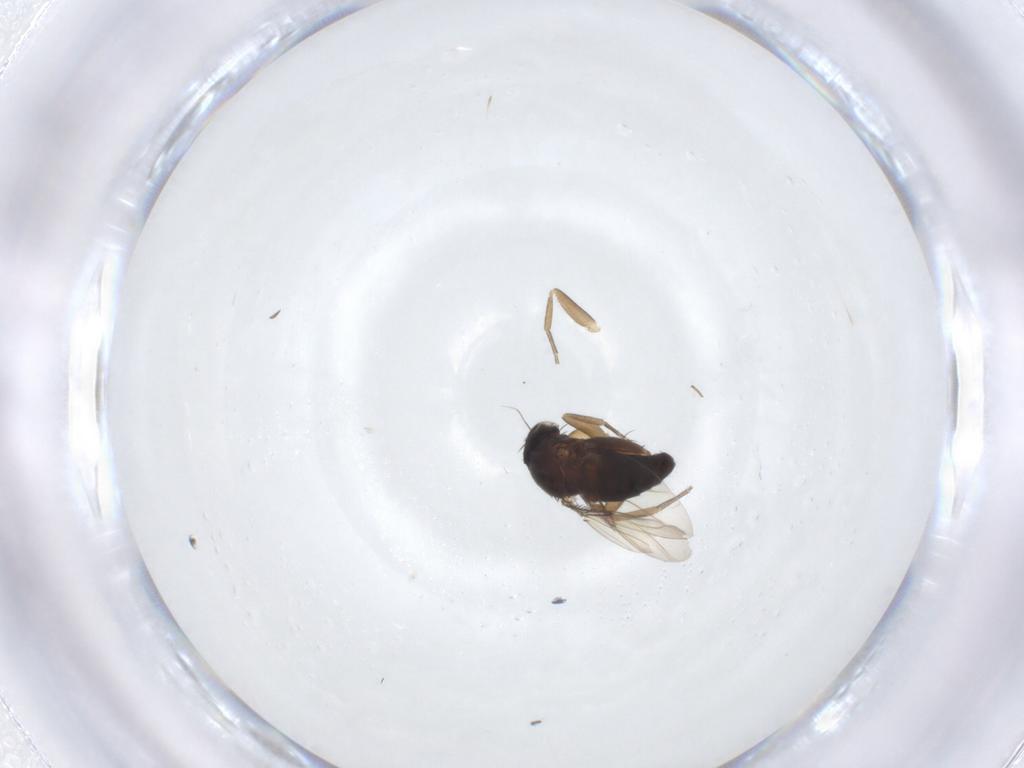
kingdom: Animalia
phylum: Arthropoda
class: Insecta
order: Diptera
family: Phoridae
